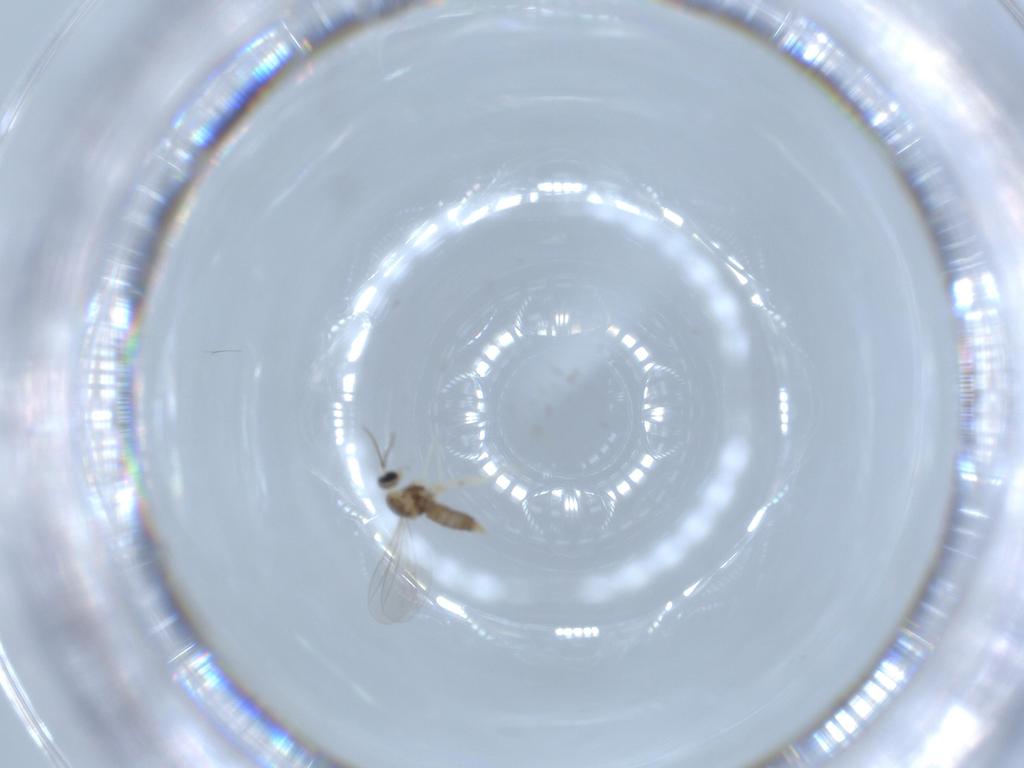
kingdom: Animalia
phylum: Arthropoda
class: Insecta
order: Diptera
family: Cecidomyiidae
